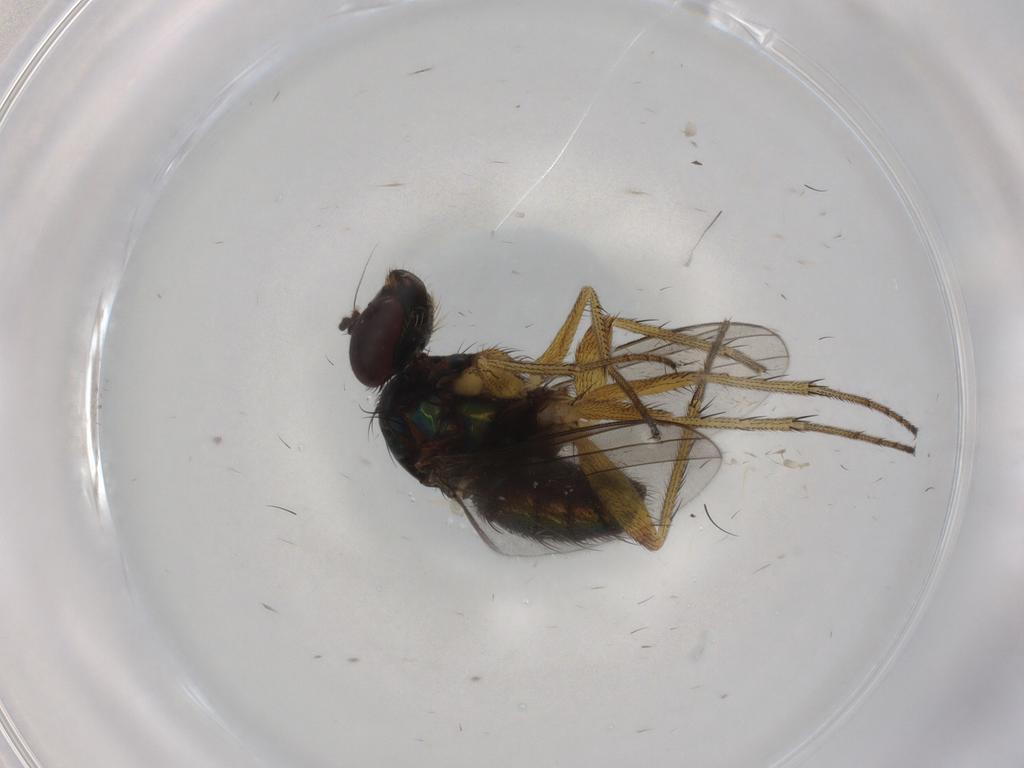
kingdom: Animalia
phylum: Arthropoda
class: Insecta
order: Diptera
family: Dolichopodidae
